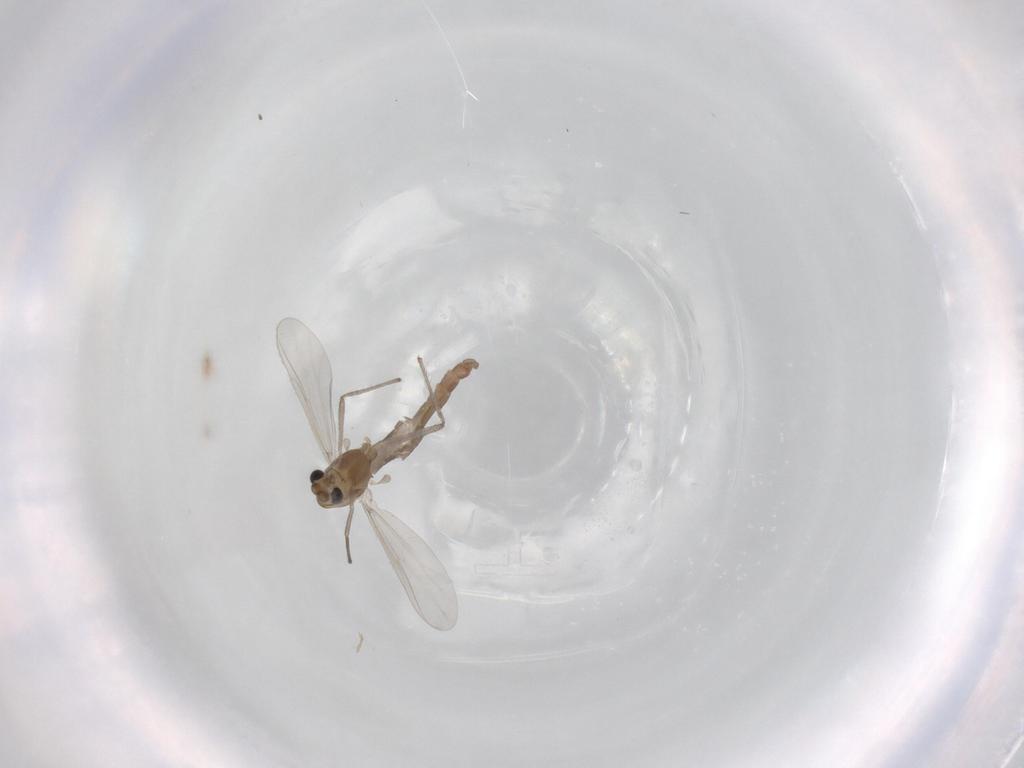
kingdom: Animalia
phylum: Arthropoda
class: Insecta
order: Diptera
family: Chironomidae
